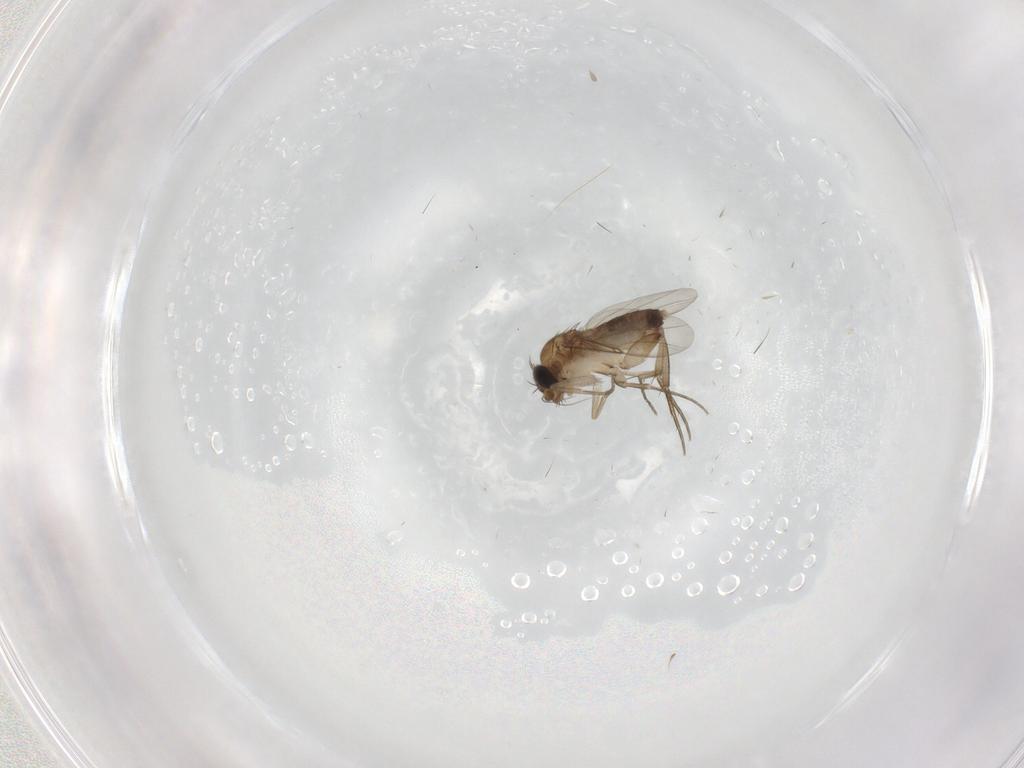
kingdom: Animalia
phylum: Arthropoda
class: Insecta
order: Diptera
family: Phoridae
